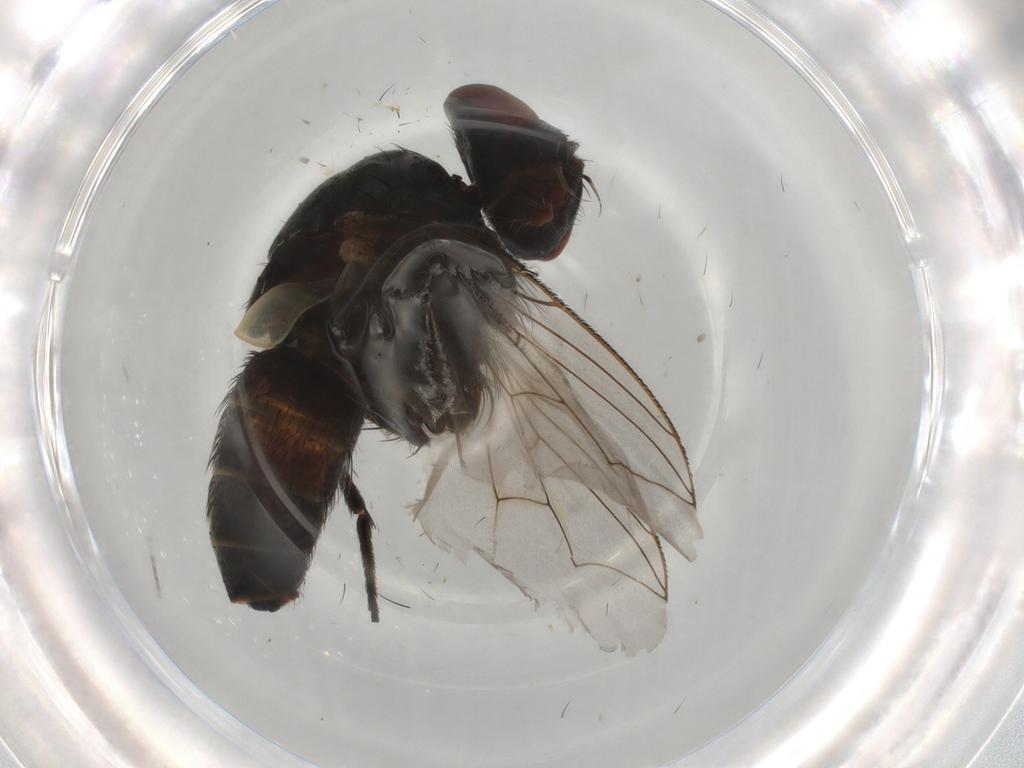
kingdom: Animalia
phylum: Arthropoda
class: Insecta
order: Diptera
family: Sarcophagidae
